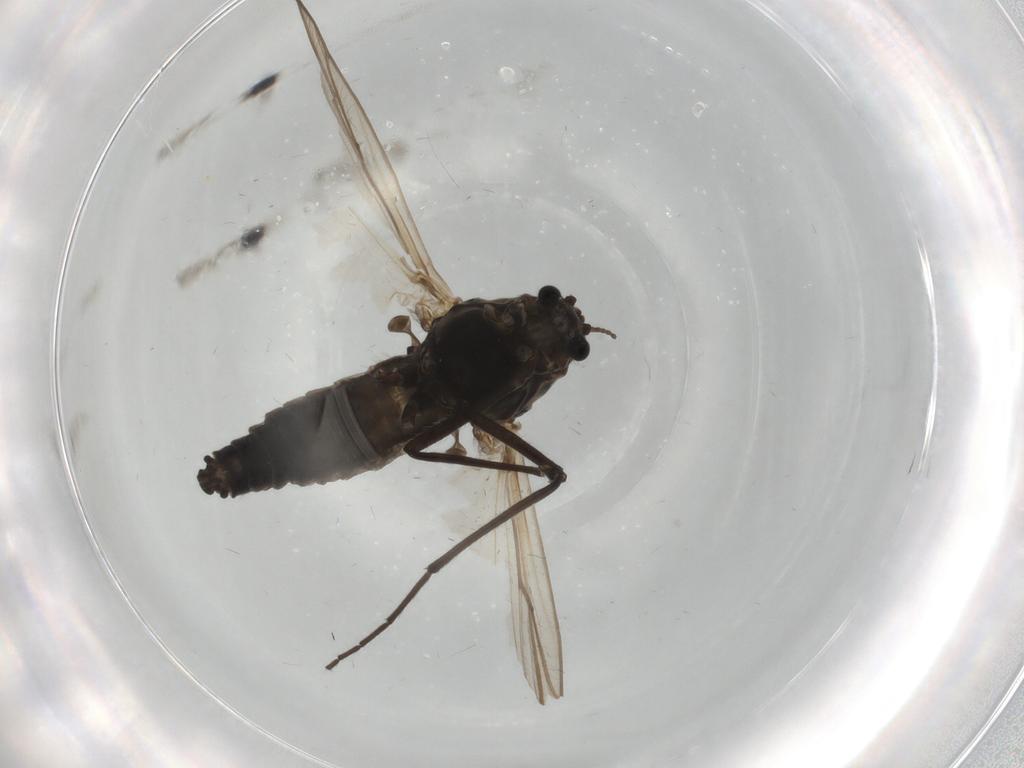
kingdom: Animalia
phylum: Arthropoda
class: Insecta
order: Diptera
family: Chironomidae
